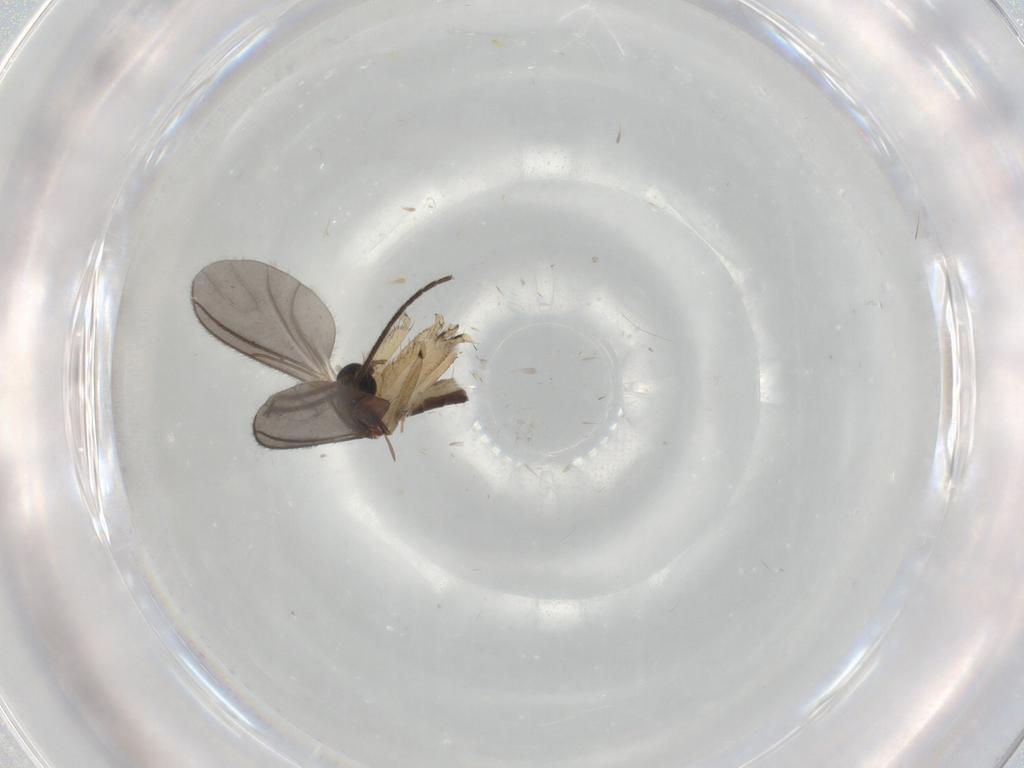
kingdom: Animalia
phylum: Arthropoda
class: Insecta
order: Diptera
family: Sciaridae
